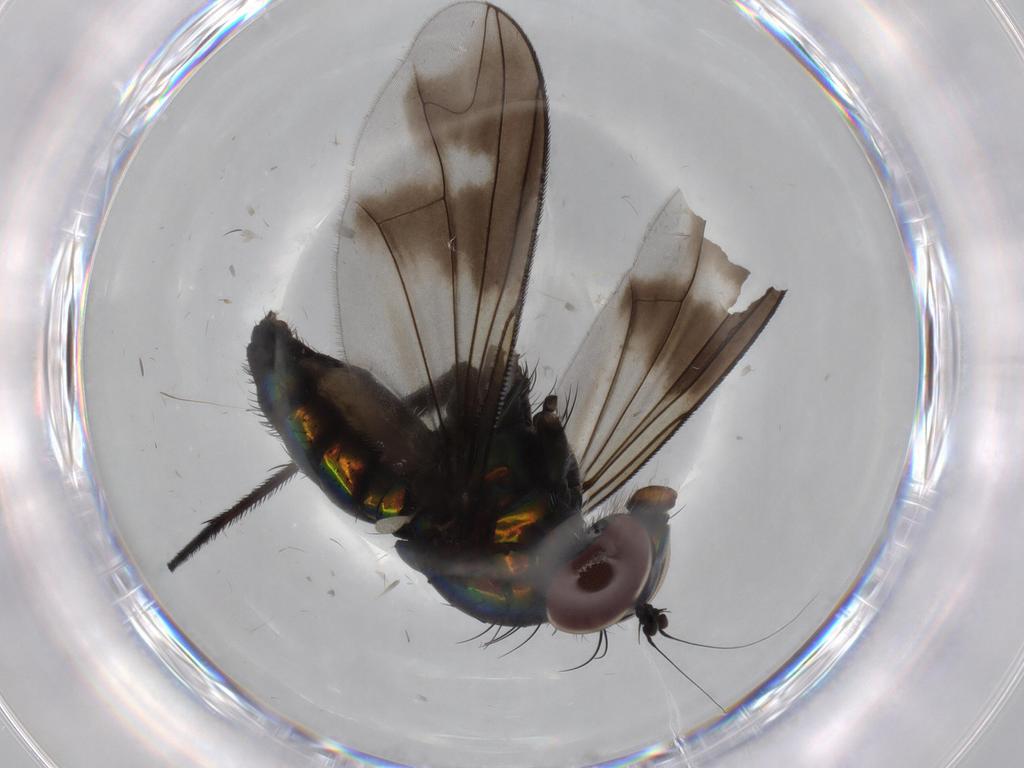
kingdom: Animalia
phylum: Arthropoda
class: Insecta
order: Diptera
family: Dolichopodidae
